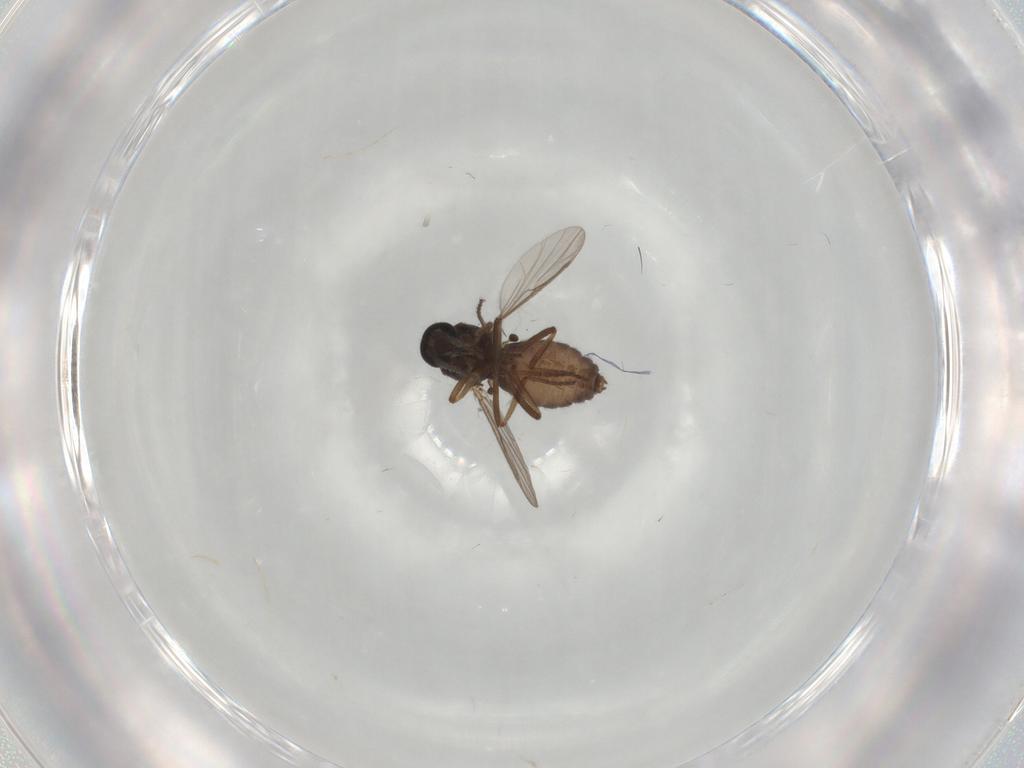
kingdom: Animalia
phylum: Arthropoda
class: Insecta
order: Diptera
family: Ceratopogonidae
